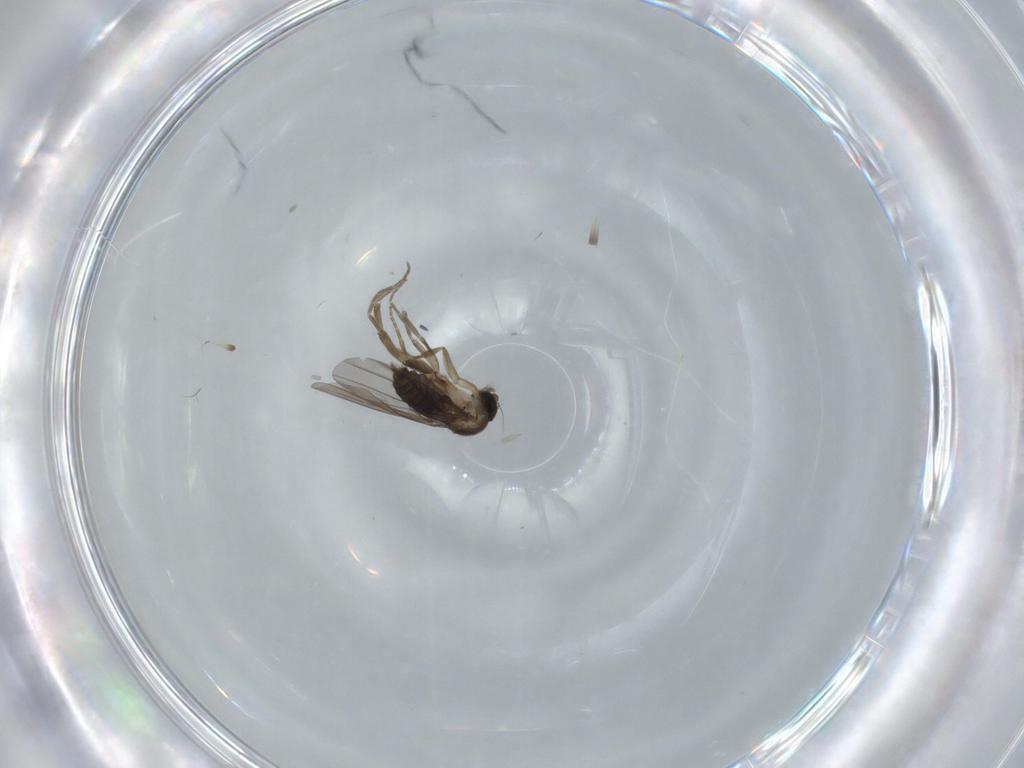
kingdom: Animalia
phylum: Arthropoda
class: Insecta
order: Diptera
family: Phoridae
